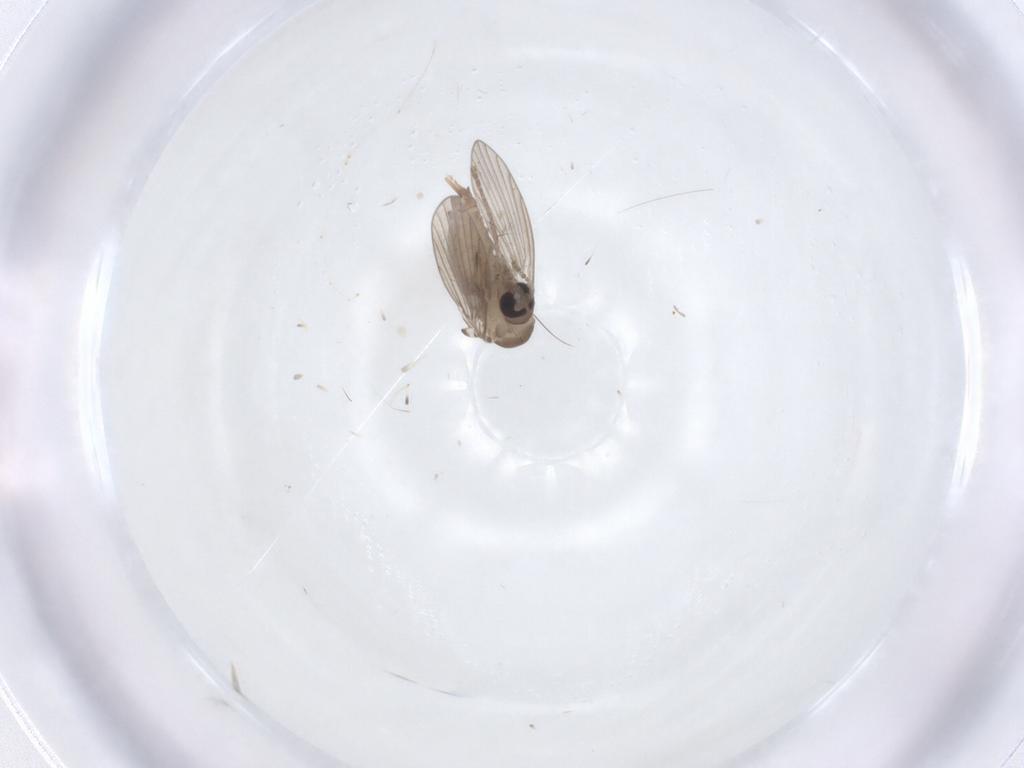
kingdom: Animalia
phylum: Arthropoda
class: Insecta
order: Diptera
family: Psychodidae
